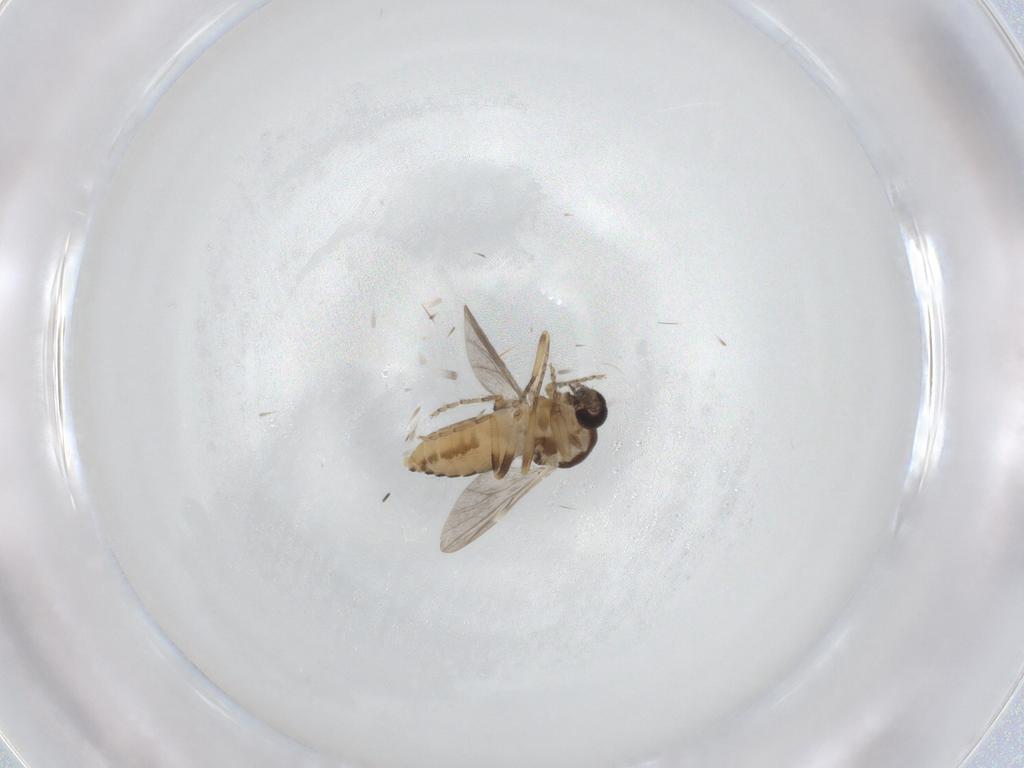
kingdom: Animalia
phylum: Arthropoda
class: Insecta
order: Diptera
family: Ceratopogonidae
